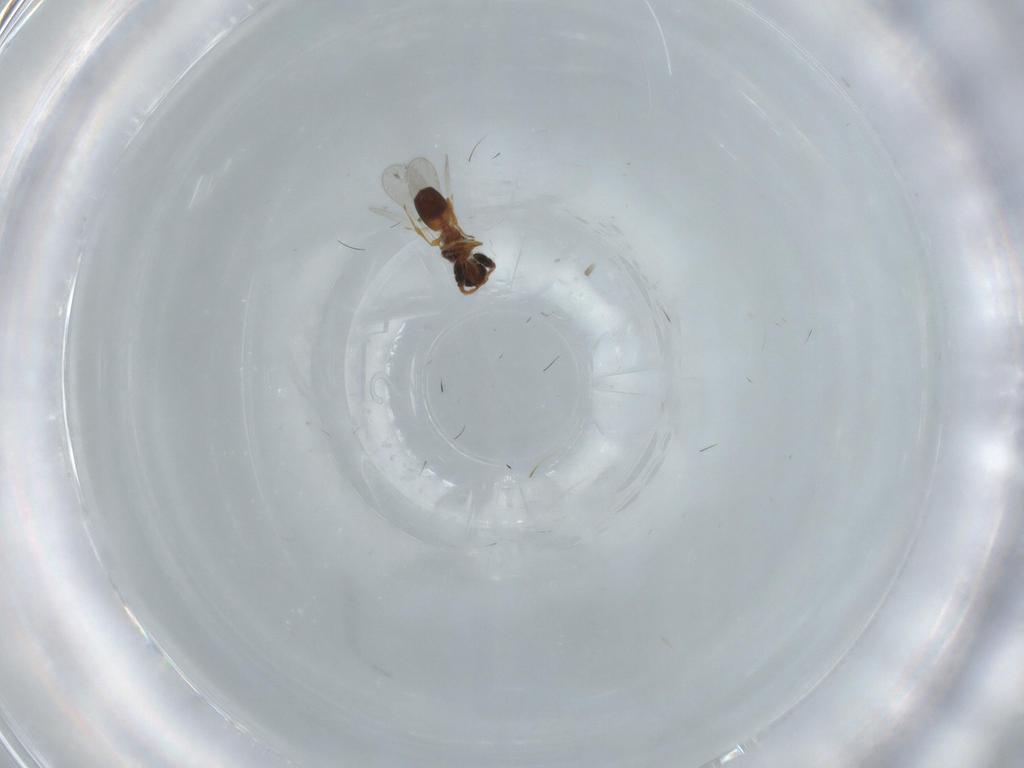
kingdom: Animalia
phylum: Arthropoda
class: Insecta
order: Hymenoptera
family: Diapriidae
